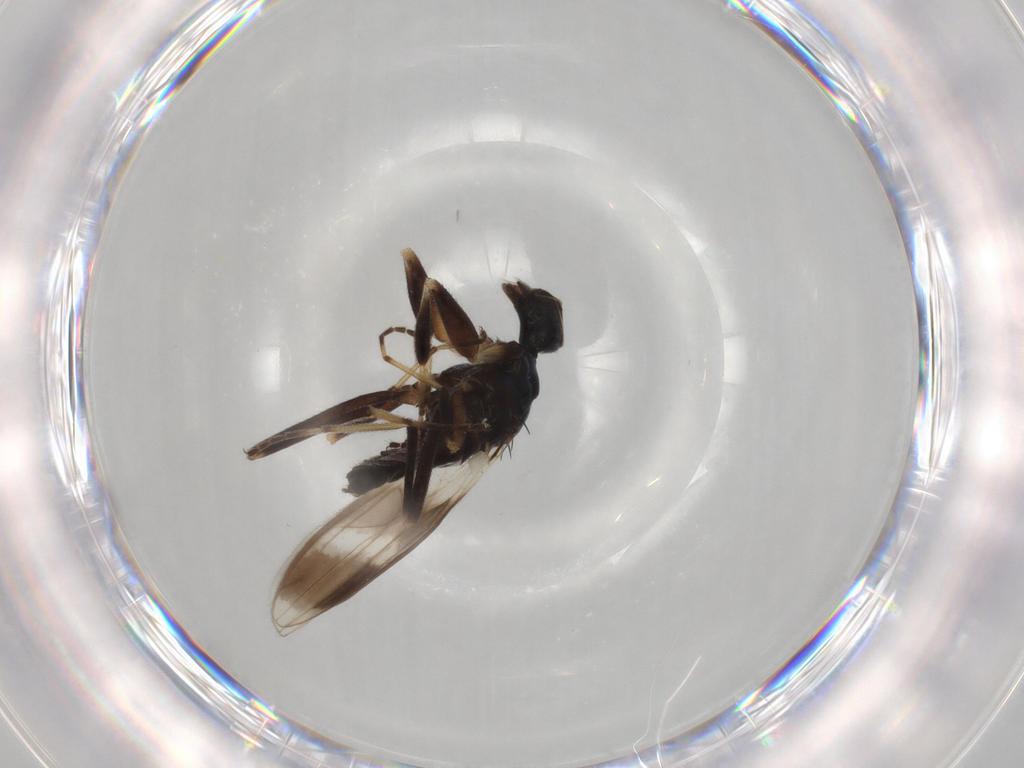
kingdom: Animalia
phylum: Arthropoda
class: Insecta
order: Diptera
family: Hybotidae
